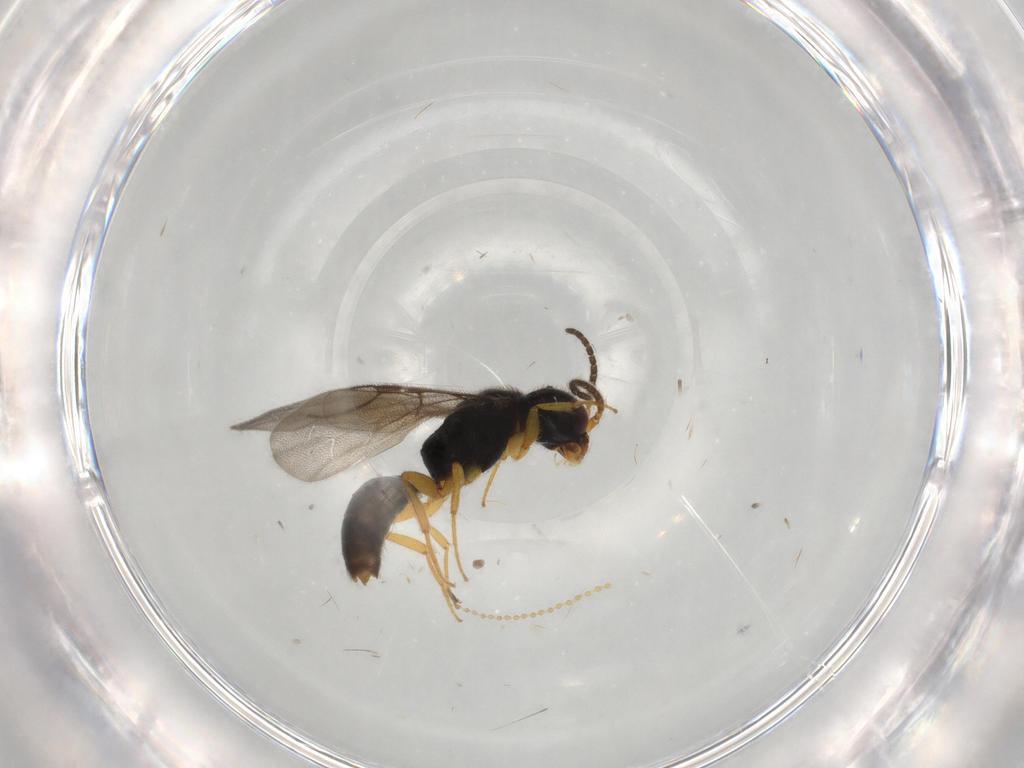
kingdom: Animalia
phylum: Arthropoda
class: Insecta
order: Hymenoptera
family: Bethylidae
